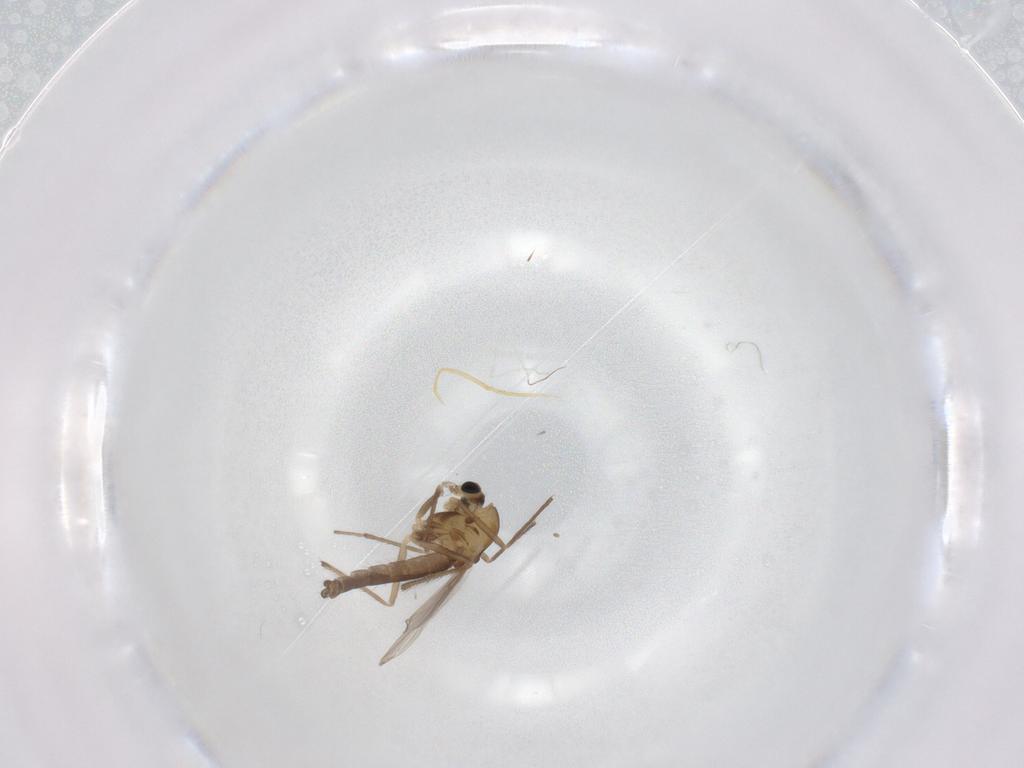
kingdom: Animalia
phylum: Arthropoda
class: Insecta
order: Diptera
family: Chironomidae
